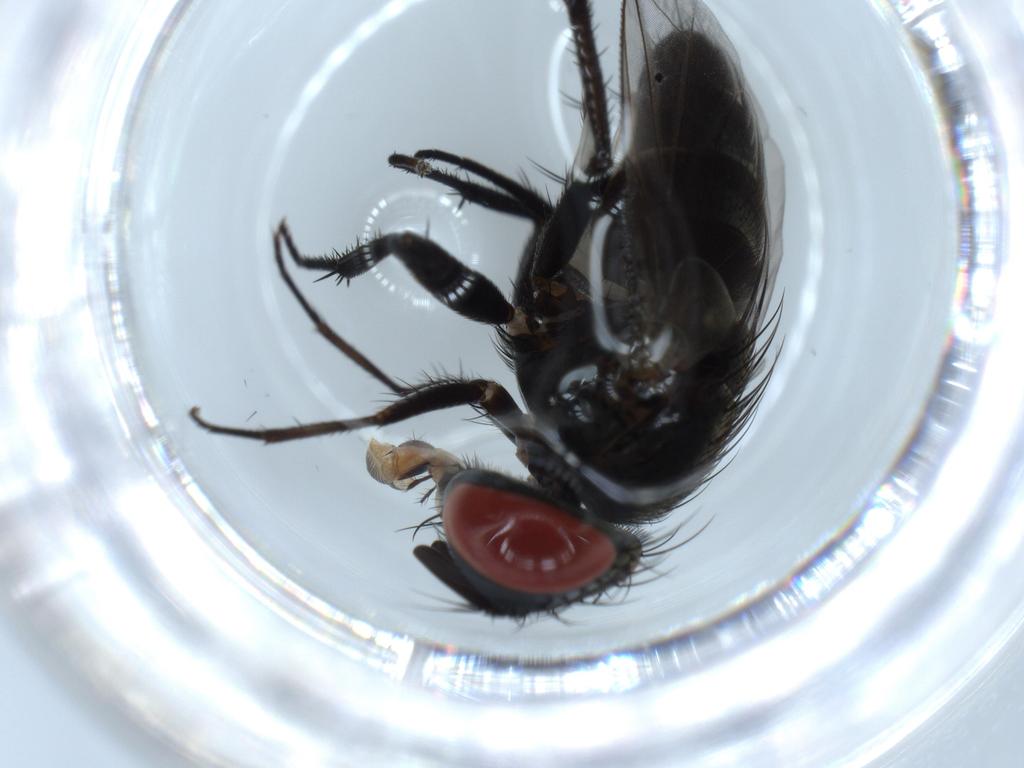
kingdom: Animalia
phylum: Arthropoda
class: Insecta
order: Diptera
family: Sarcophagidae
